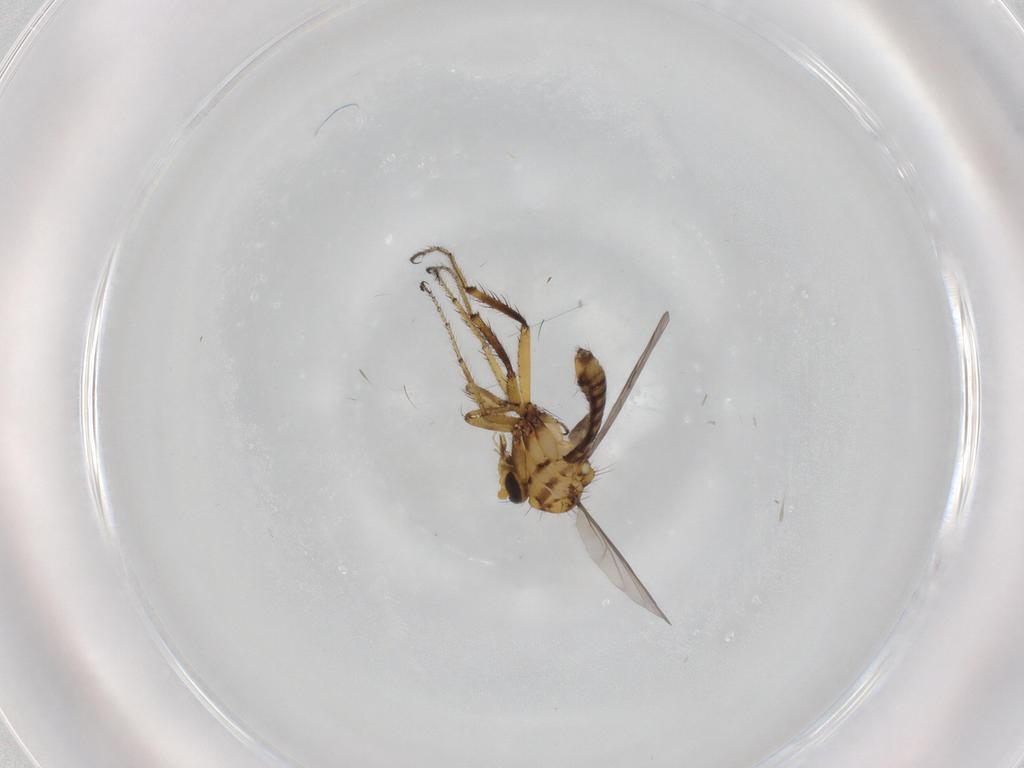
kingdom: Animalia
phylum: Arthropoda
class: Insecta
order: Diptera
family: Ceratopogonidae
